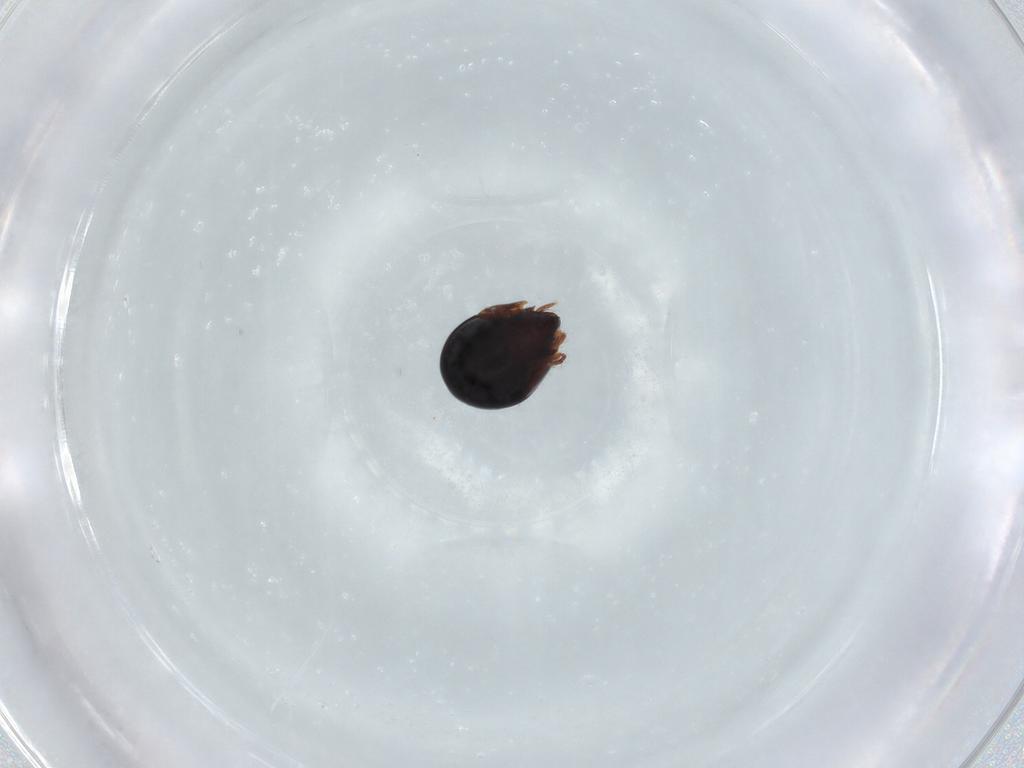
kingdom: Animalia
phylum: Arthropoda
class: Arachnida
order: Sarcoptiformes
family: Ceratozetidae
